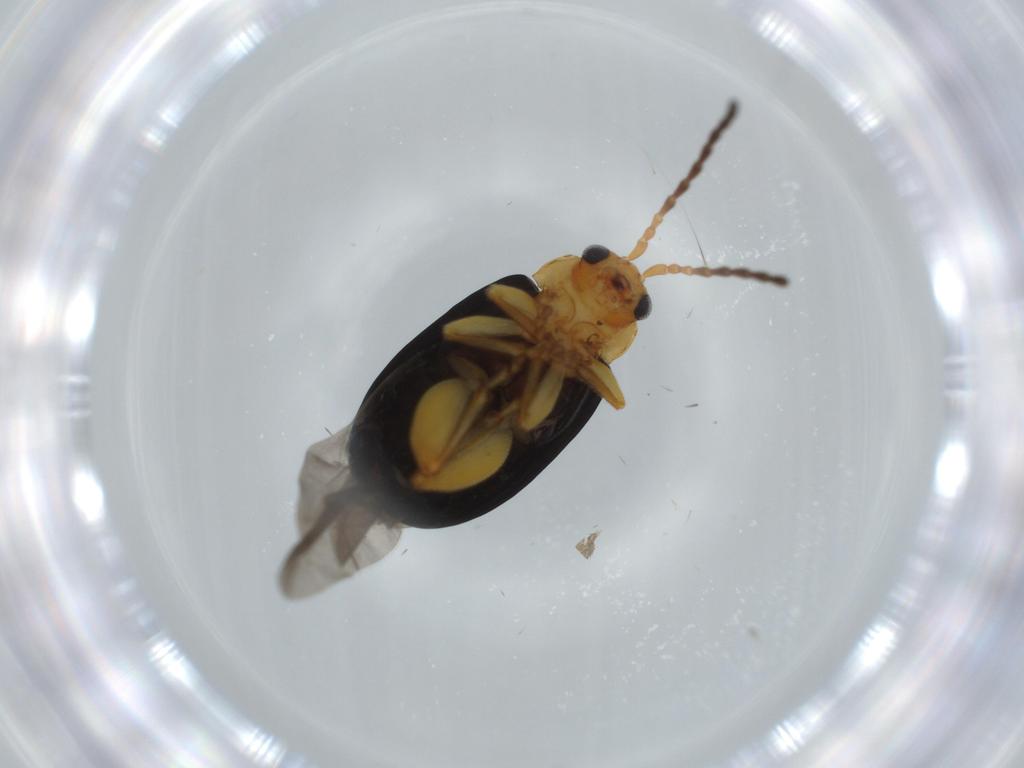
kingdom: Animalia
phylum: Arthropoda
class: Insecta
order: Coleoptera
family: Chrysomelidae
